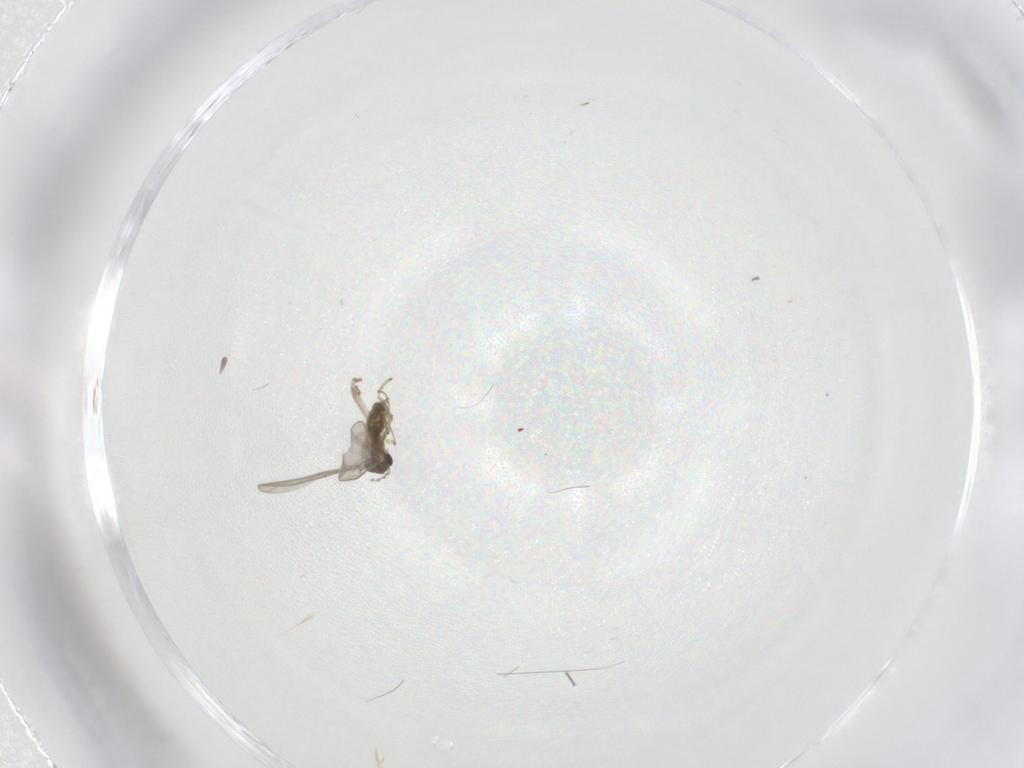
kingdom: Animalia
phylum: Arthropoda
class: Insecta
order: Diptera
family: Cecidomyiidae
